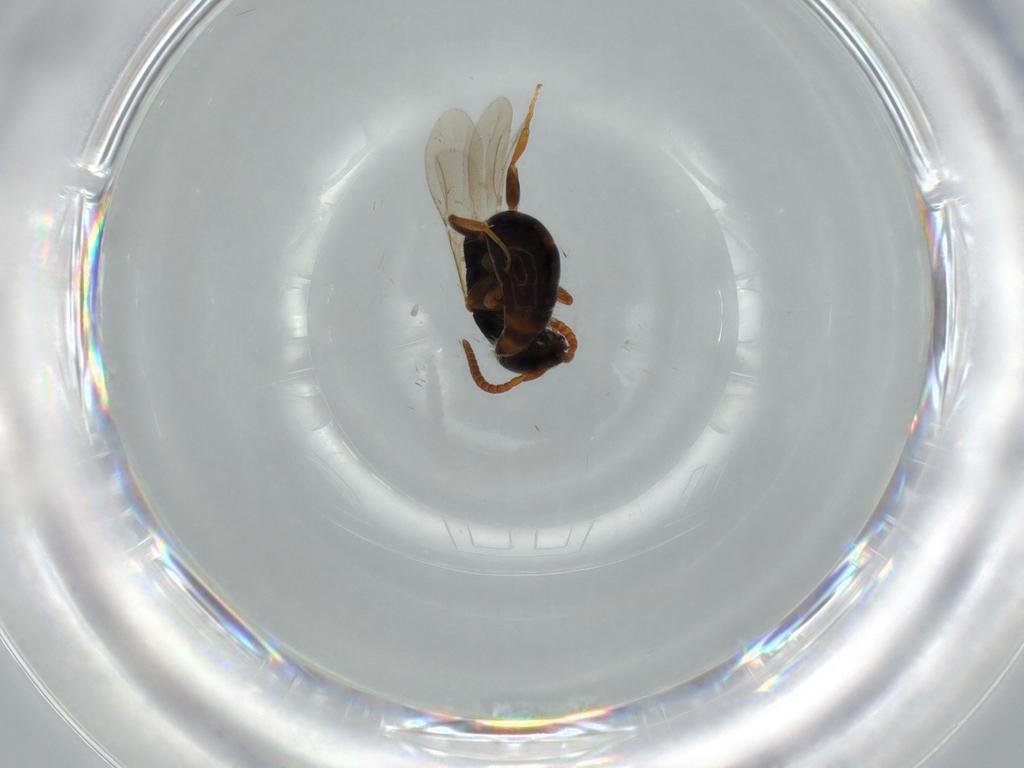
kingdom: Animalia
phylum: Arthropoda
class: Insecta
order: Hymenoptera
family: Bethylidae
